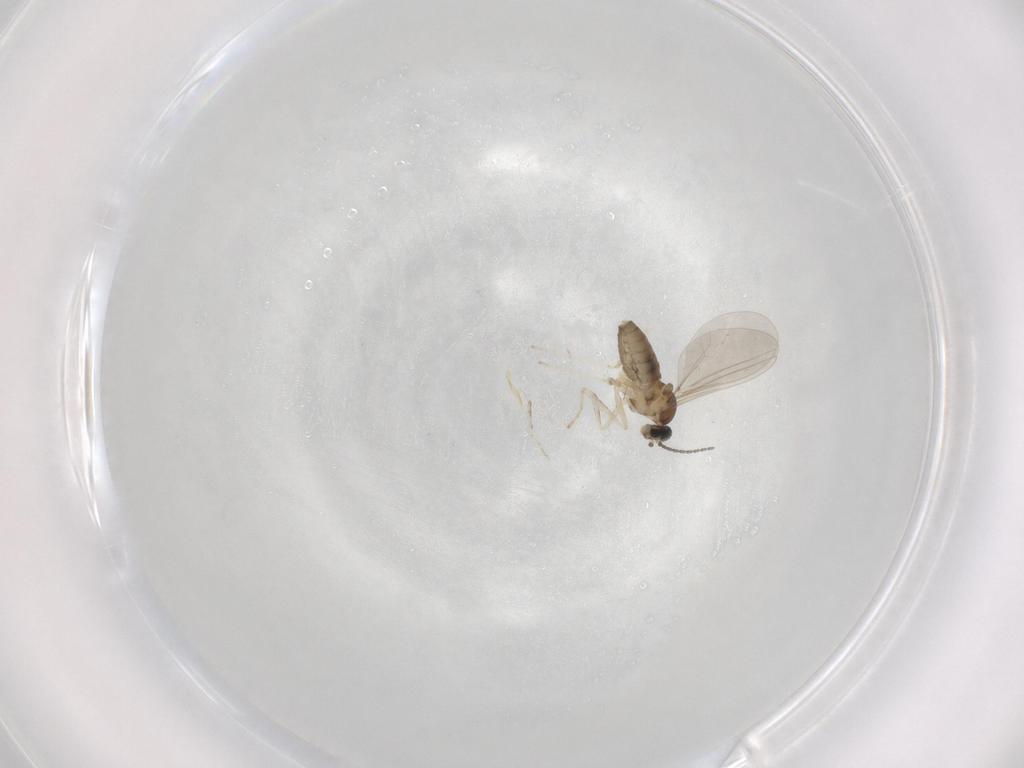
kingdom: Animalia
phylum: Arthropoda
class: Insecta
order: Diptera
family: Cecidomyiidae
